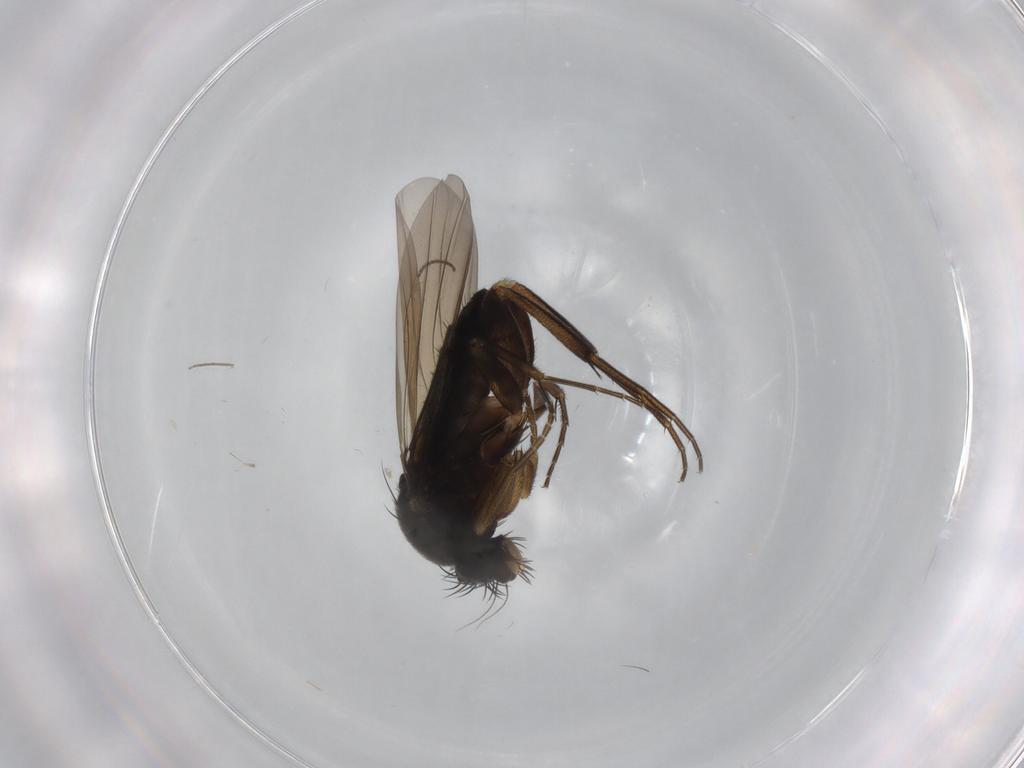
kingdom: Animalia
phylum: Arthropoda
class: Insecta
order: Diptera
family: Phoridae
